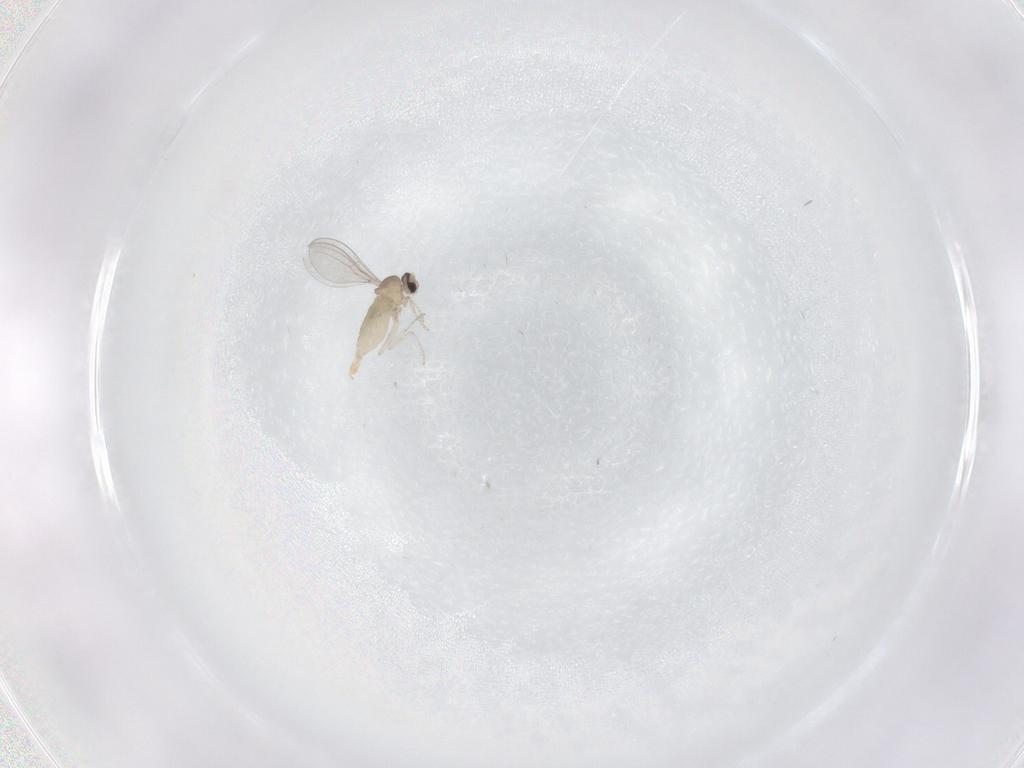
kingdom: Animalia
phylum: Arthropoda
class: Insecta
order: Diptera
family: Cecidomyiidae
